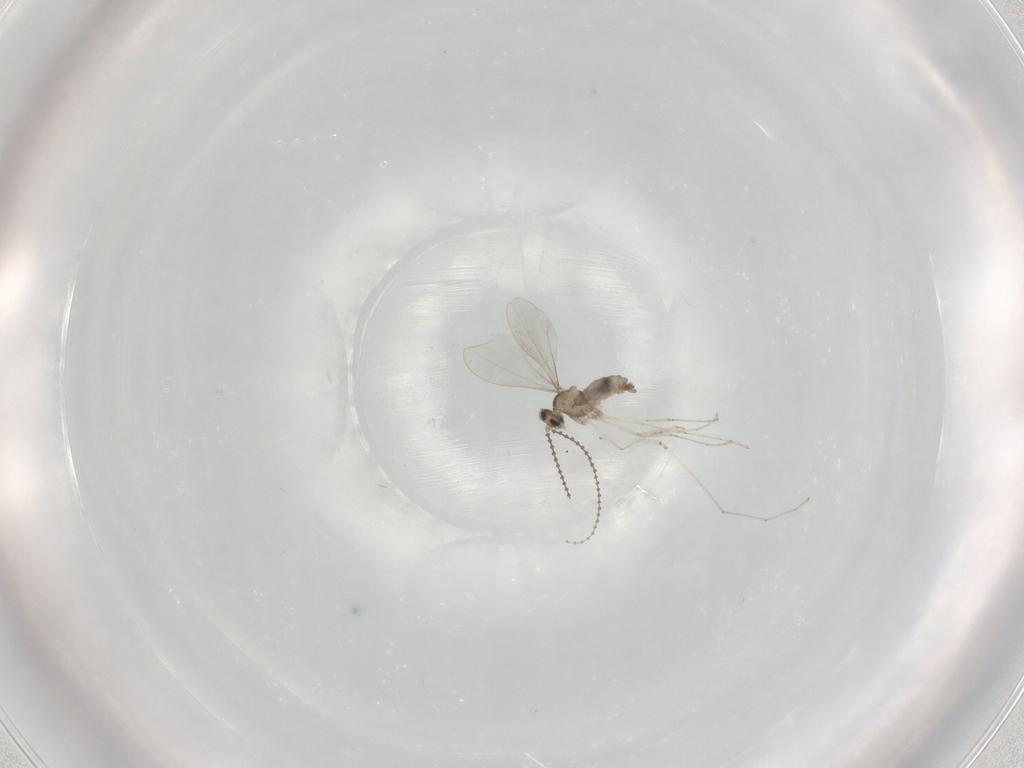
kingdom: Animalia
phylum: Arthropoda
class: Insecta
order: Diptera
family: Cecidomyiidae
